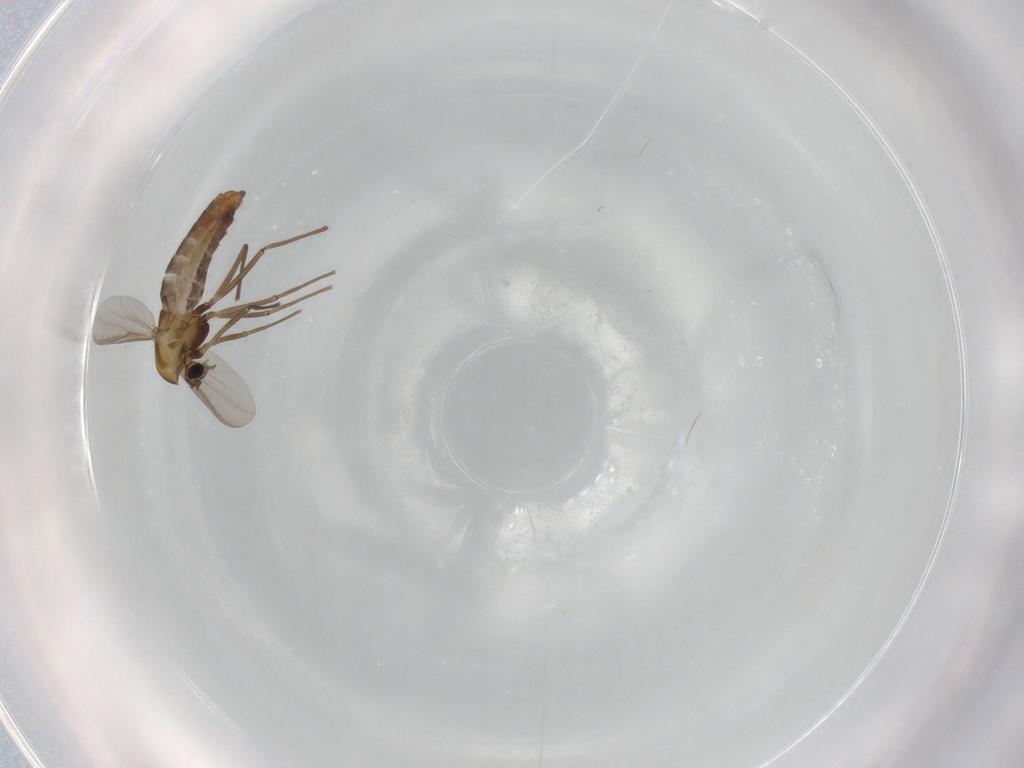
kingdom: Animalia
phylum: Arthropoda
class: Insecta
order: Diptera
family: Chironomidae
